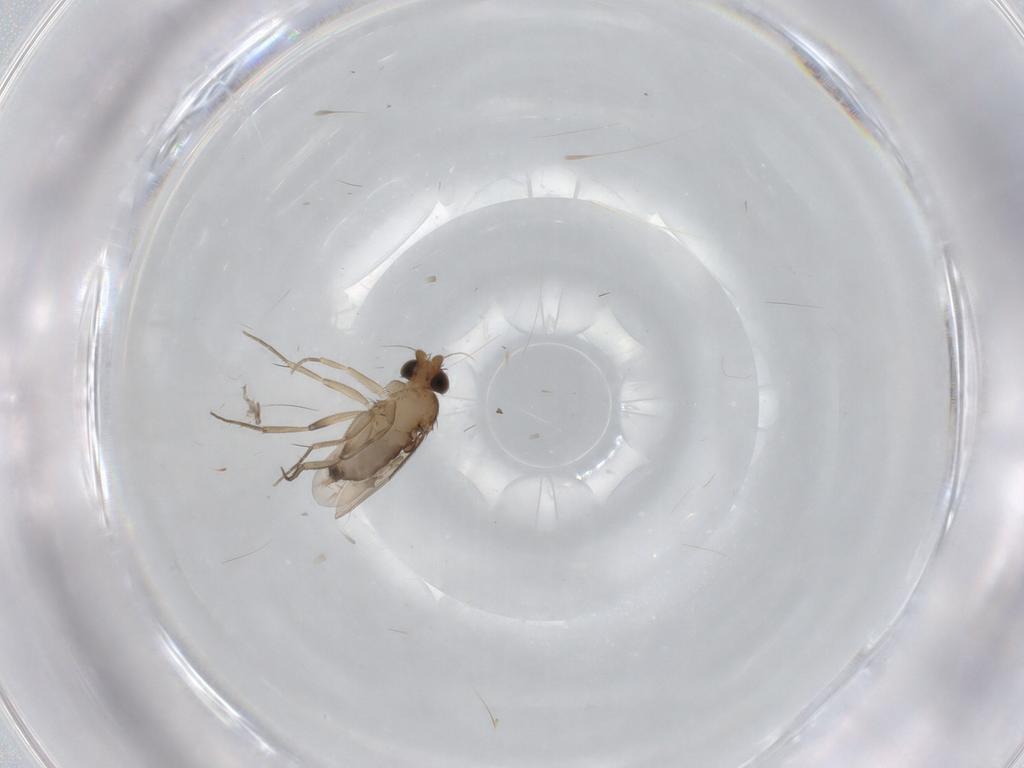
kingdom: Animalia
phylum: Arthropoda
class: Insecta
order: Diptera
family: Phoridae
